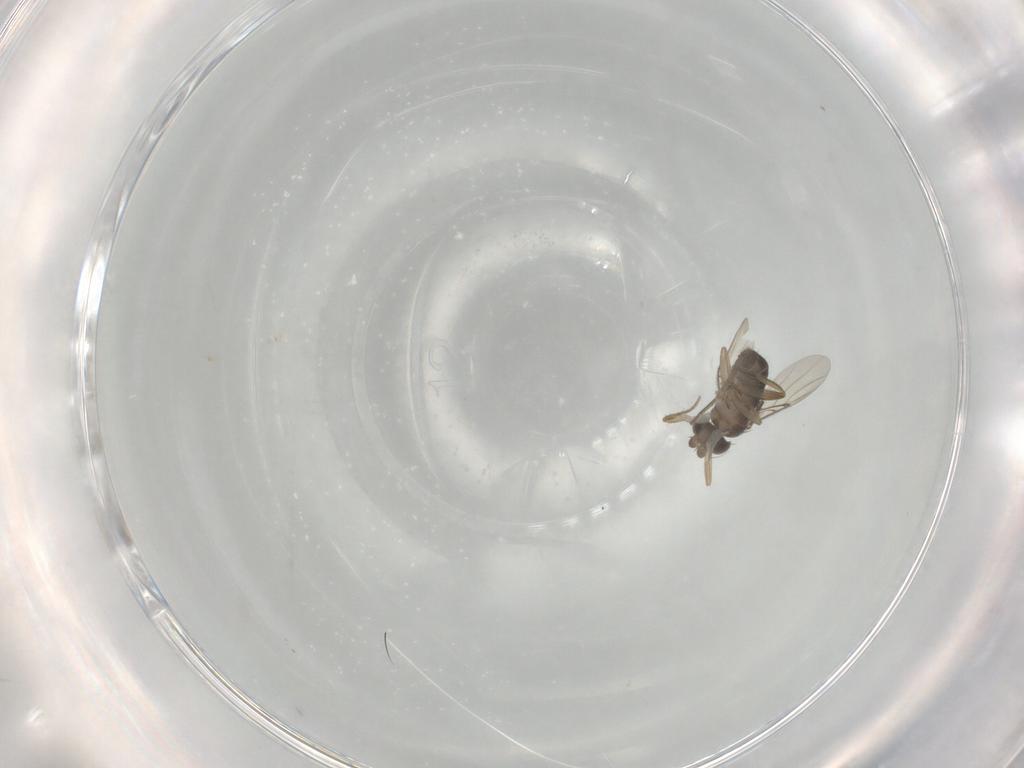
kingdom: Animalia
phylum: Arthropoda
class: Insecta
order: Diptera
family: Phoridae
